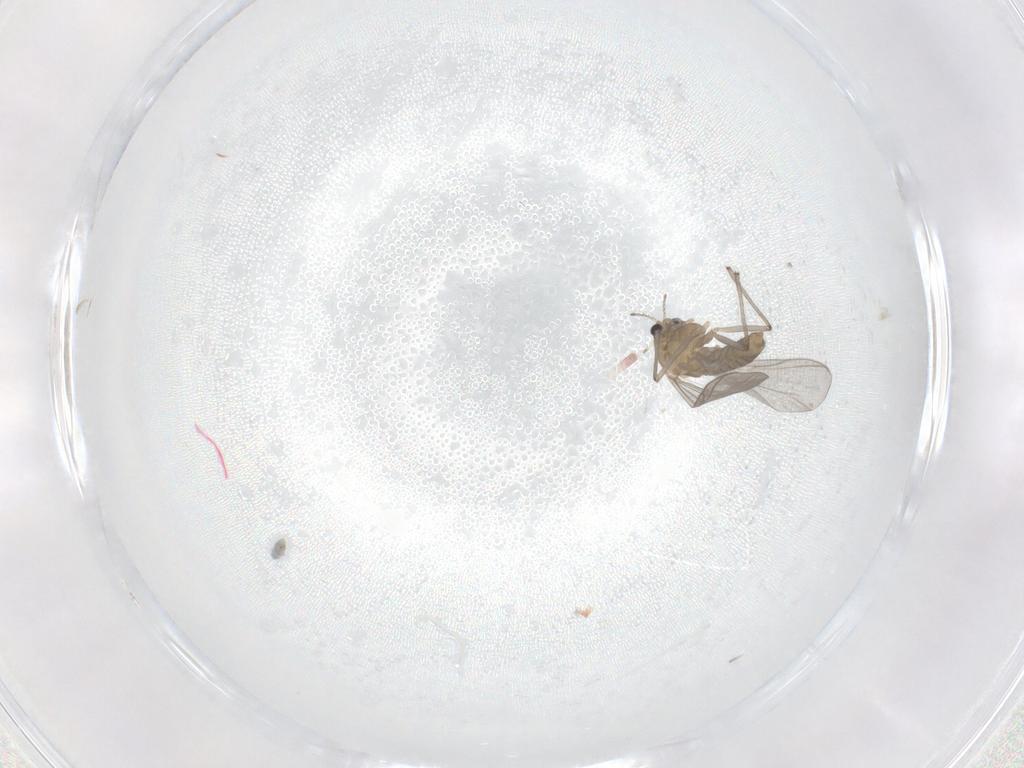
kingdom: Animalia
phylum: Arthropoda
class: Insecta
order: Diptera
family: Chironomidae
